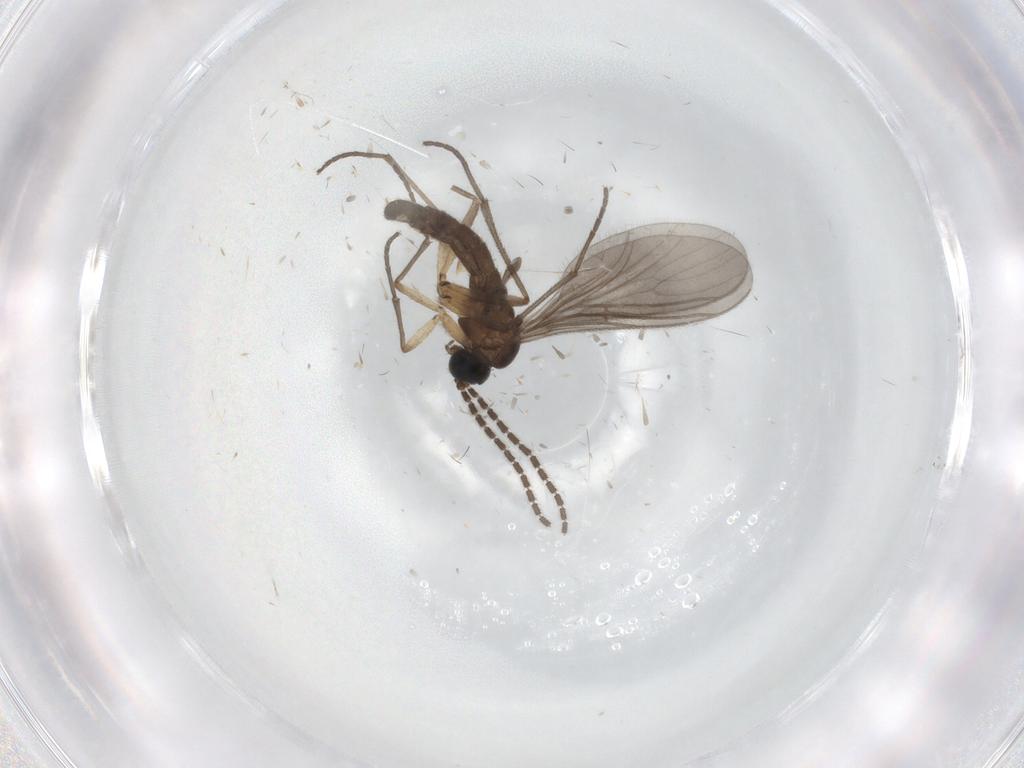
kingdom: Animalia
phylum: Arthropoda
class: Insecta
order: Diptera
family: Sciaridae
